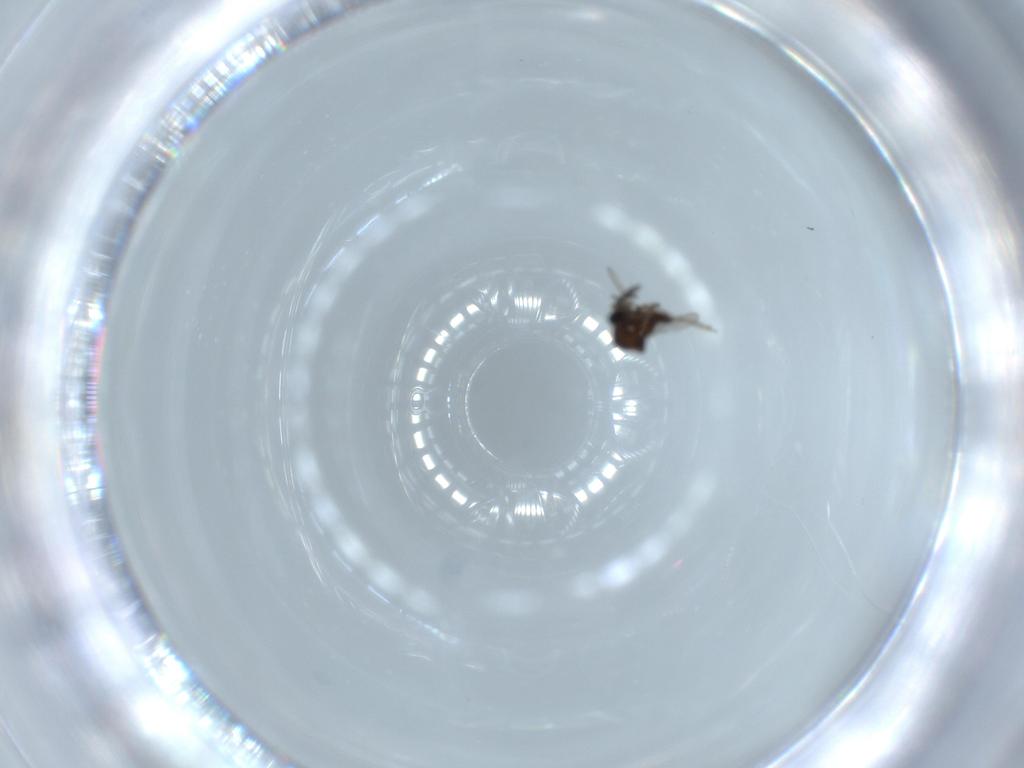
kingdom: Animalia
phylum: Arthropoda
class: Insecta
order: Diptera
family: Ceratopogonidae
